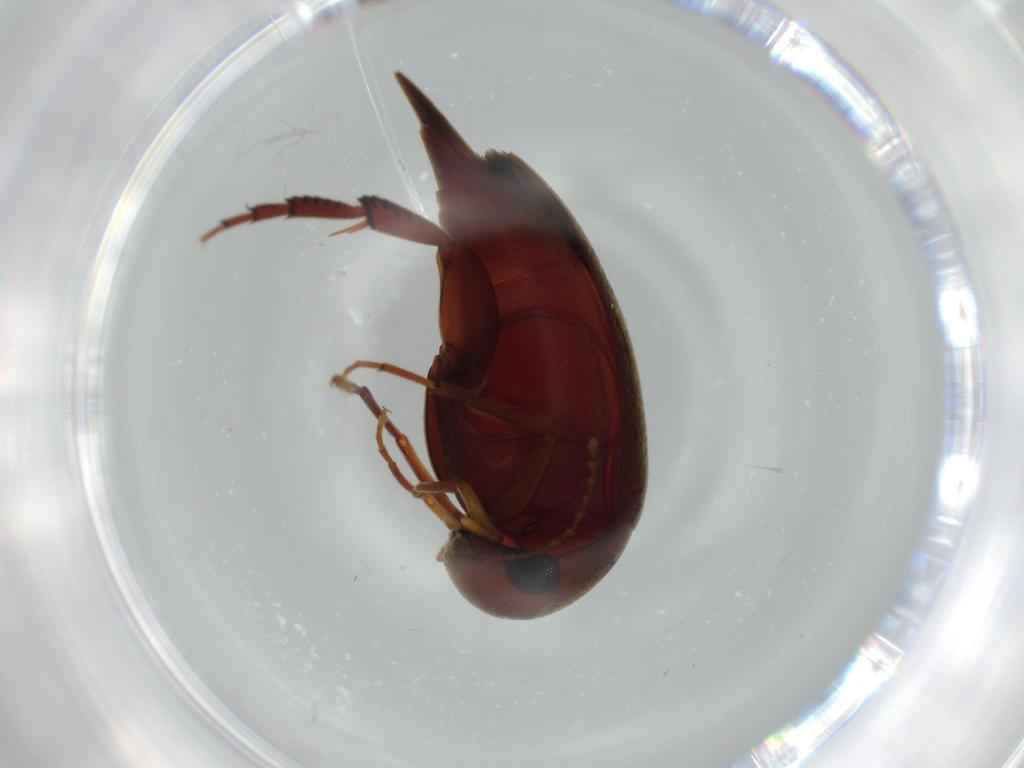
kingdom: Animalia
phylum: Arthropoda
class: Insecta
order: Coleoptera
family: Chrysomelidae
